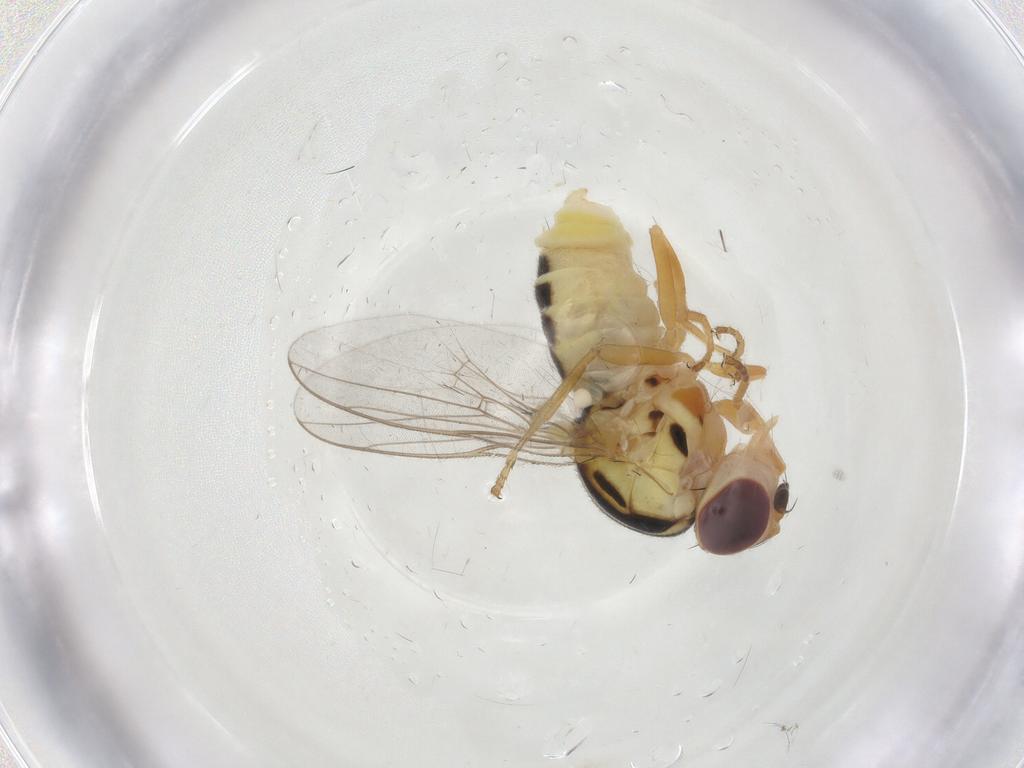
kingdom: Animalia
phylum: Arthropoda
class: Insecta
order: Diptera
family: Chloropidae
